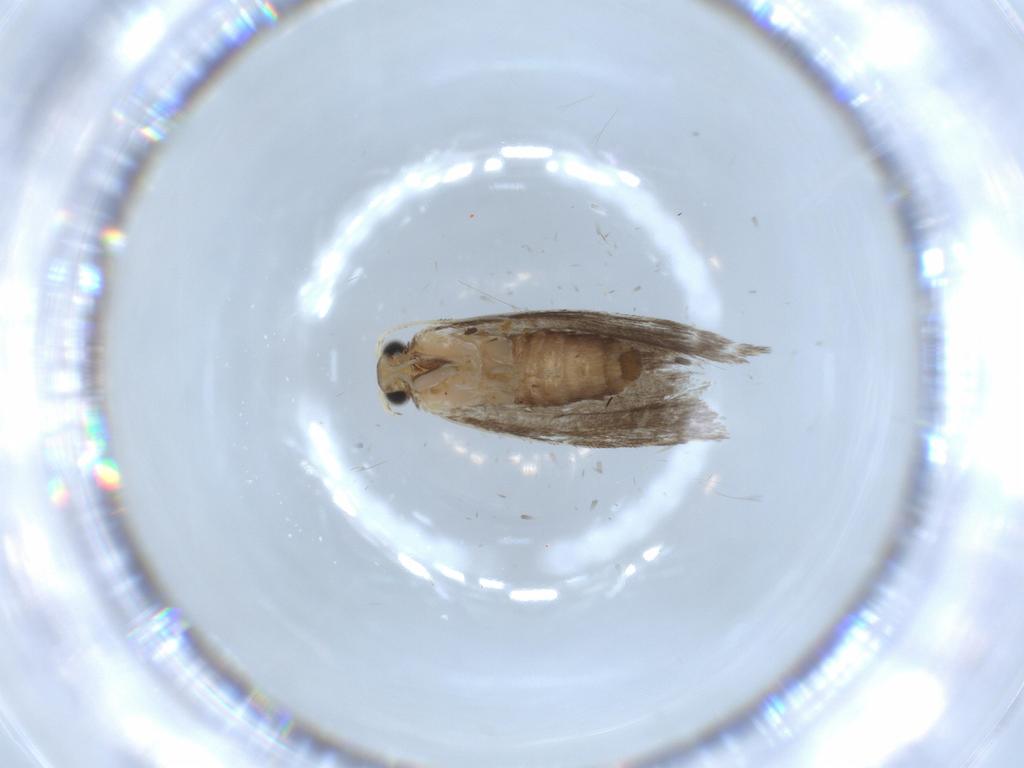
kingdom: Animalia
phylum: Arthropoda
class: Insecta
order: Lepidoptera
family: Tineidae
